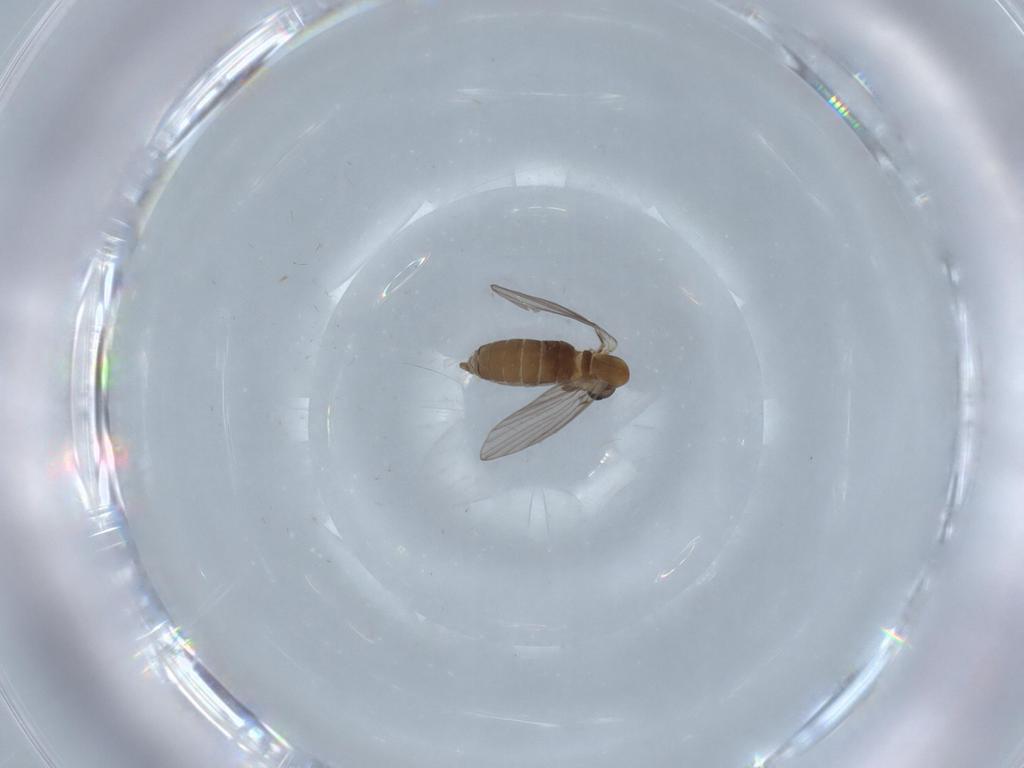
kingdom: Animalia
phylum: Arthropoda
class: Insecta
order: Diptera
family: Psychodidae
